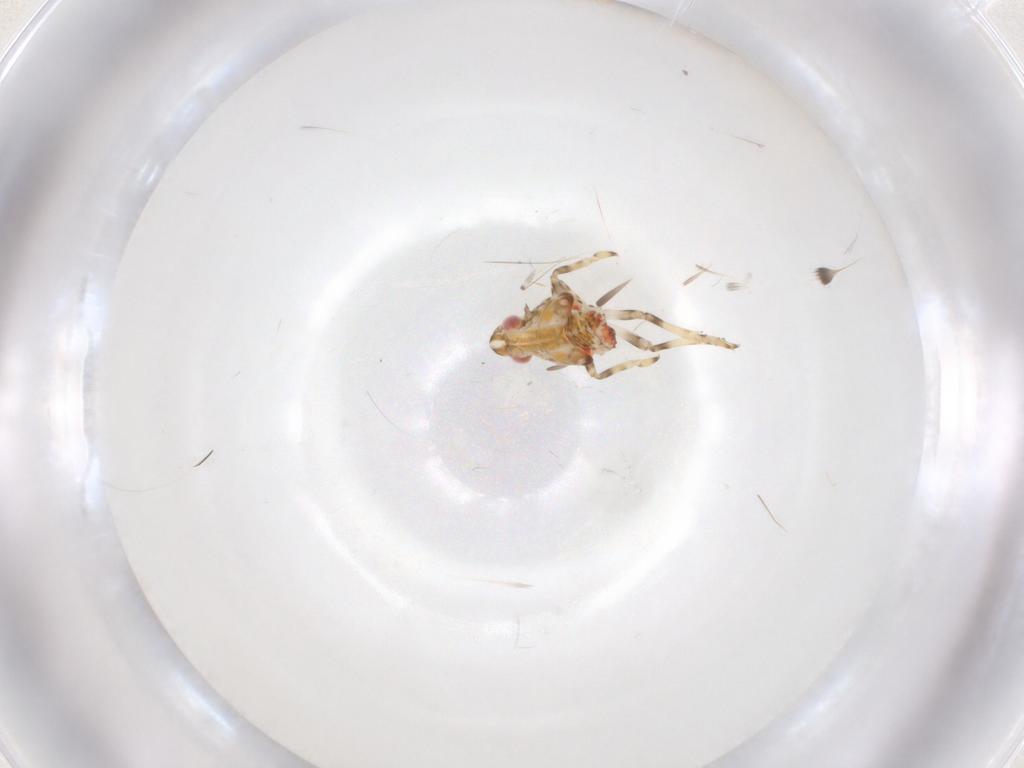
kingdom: Animalia
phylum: Arthropoda
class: Insecta
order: Hemiptera
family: Tropiduchidae
